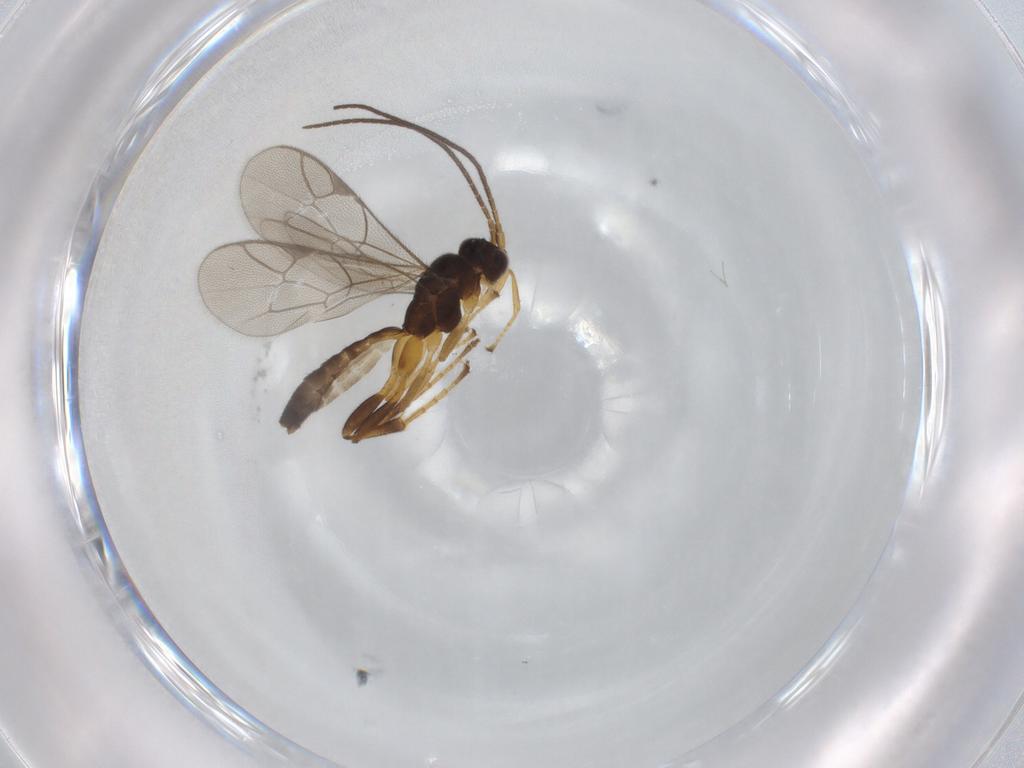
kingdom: Animalia
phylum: Arthropoda
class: Insecta
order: Hymenoptera
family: Ichneumonidae
